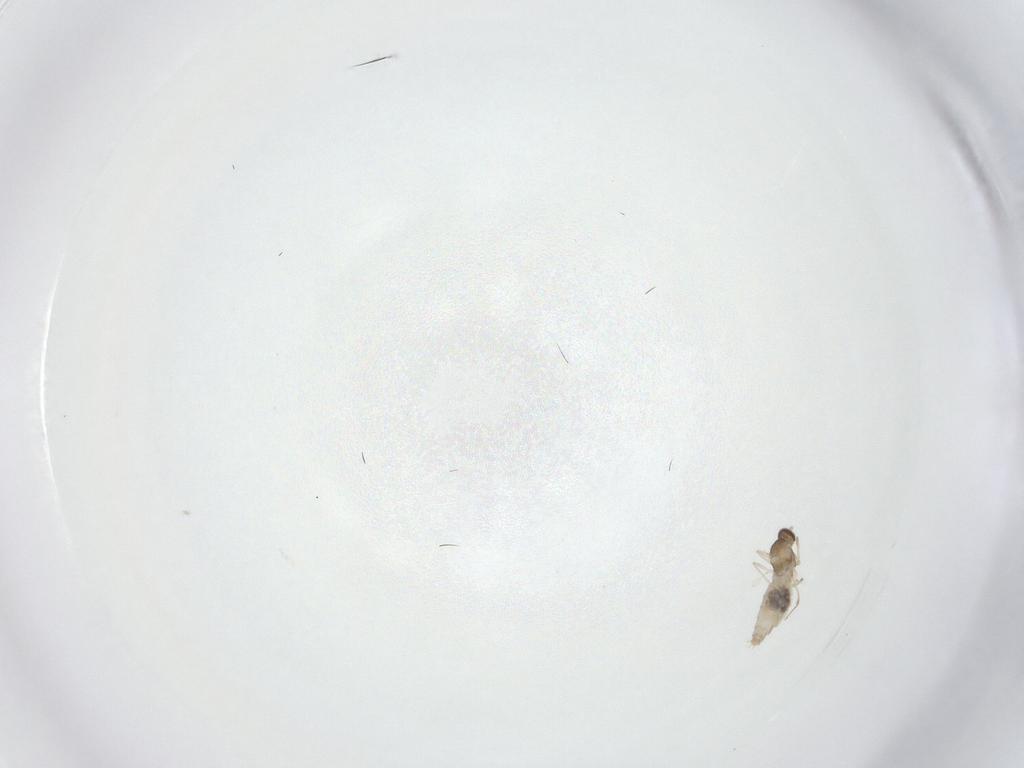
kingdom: Animalia
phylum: Arthropoda
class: Insecta
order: Diptera
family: Cecidomyiidae
